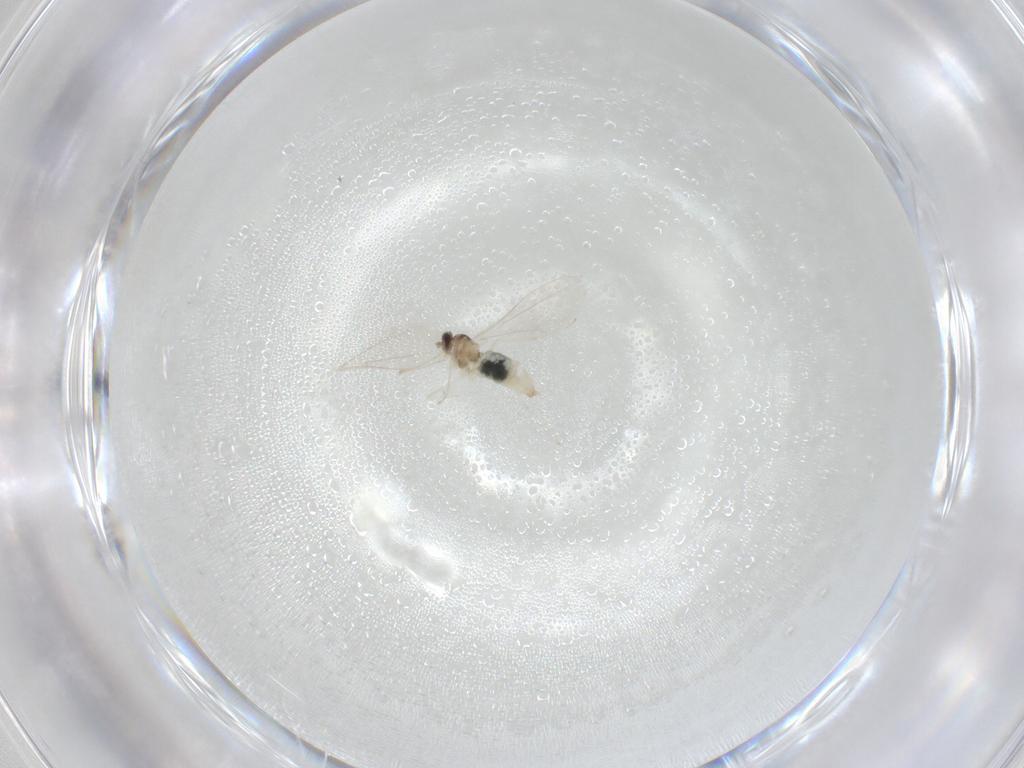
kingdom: Animalia
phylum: Arthropoda
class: Insecta
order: Diptera
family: Cecidomyiidae
